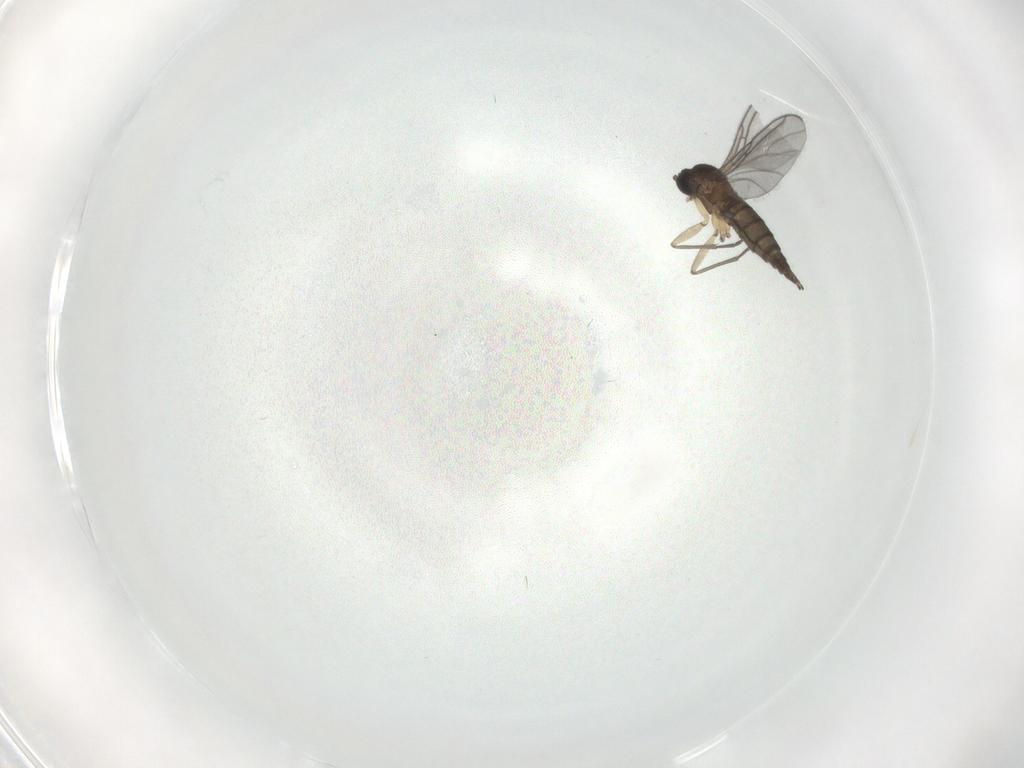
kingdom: Animalia
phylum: Arthropoda
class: Insecta
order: Diptera
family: Sciaridae
